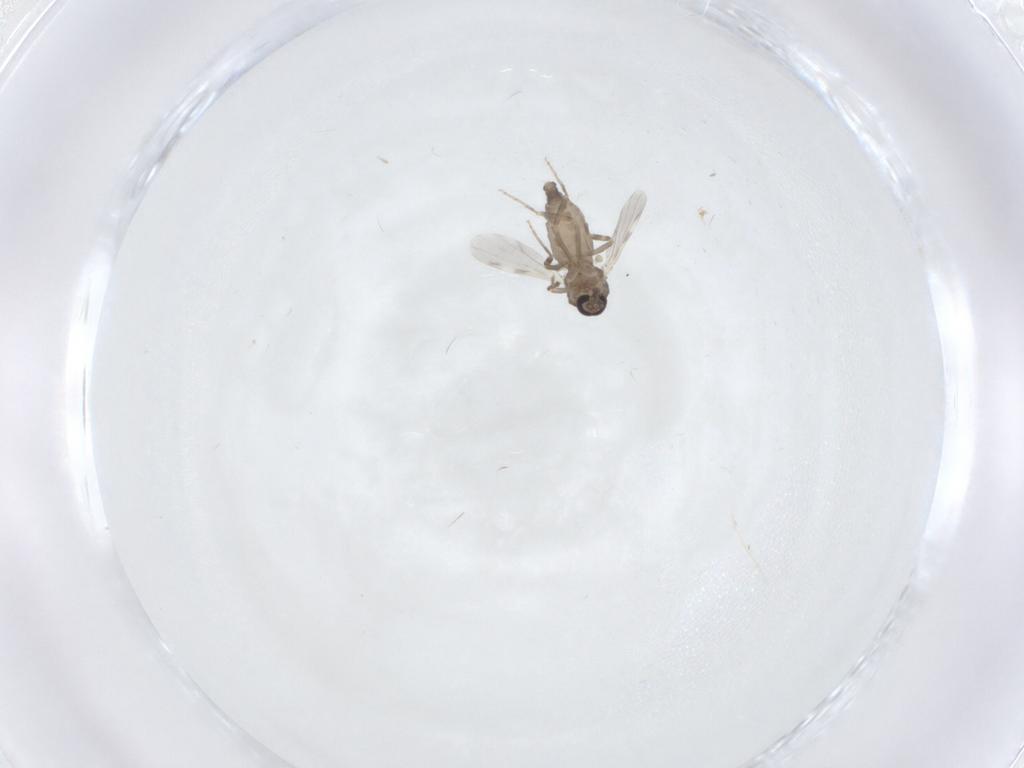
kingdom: Animalia
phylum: Arthropoda
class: Insecta
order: Diptera
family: Ceratopogonidae
